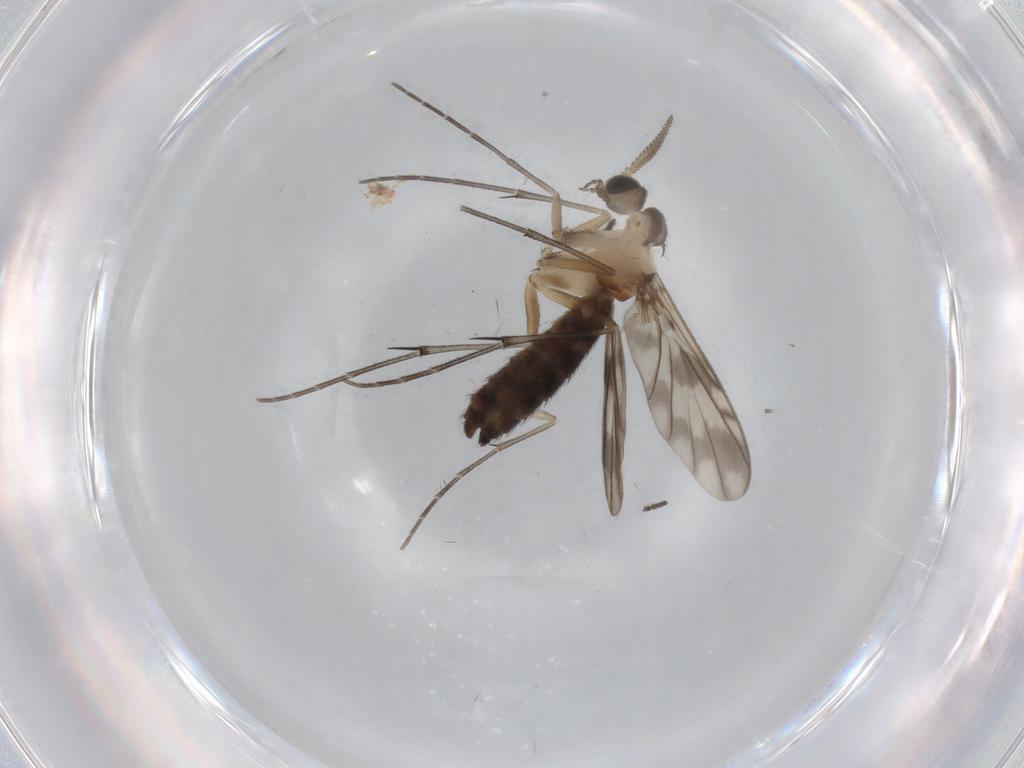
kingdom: Animalia
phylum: Arthropoda
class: Insecta
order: Diptera
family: Keroplatidae
